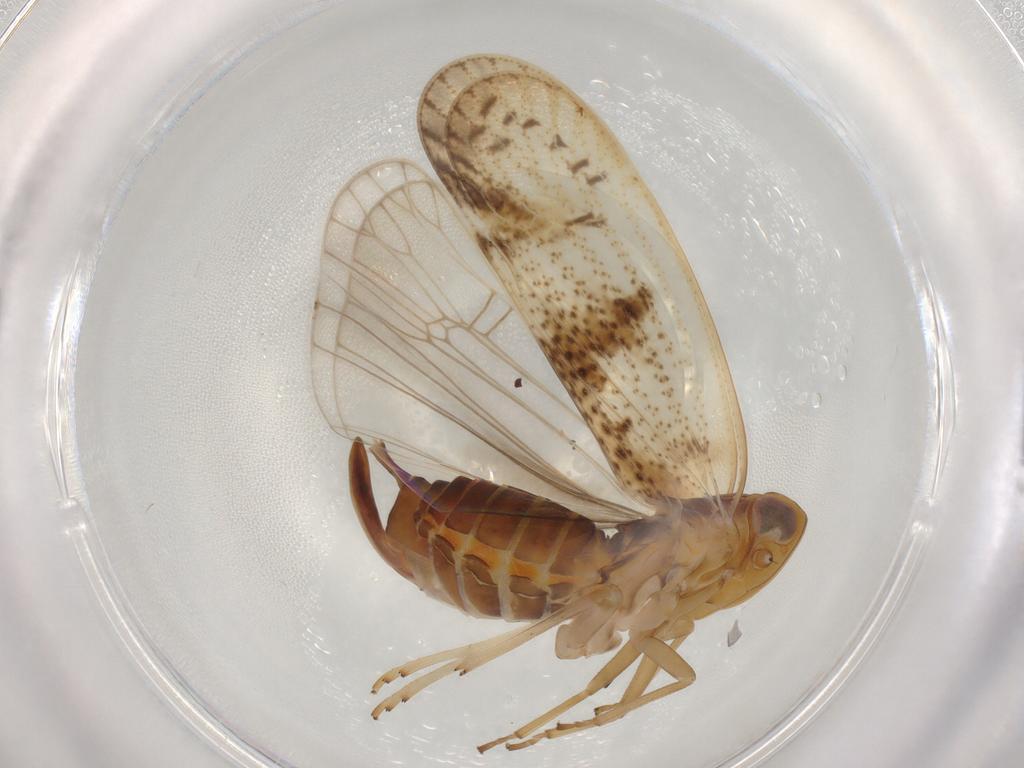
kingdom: Animalia
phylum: Arthropoda
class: Insecta
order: Hemiptera
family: Cixiidae
